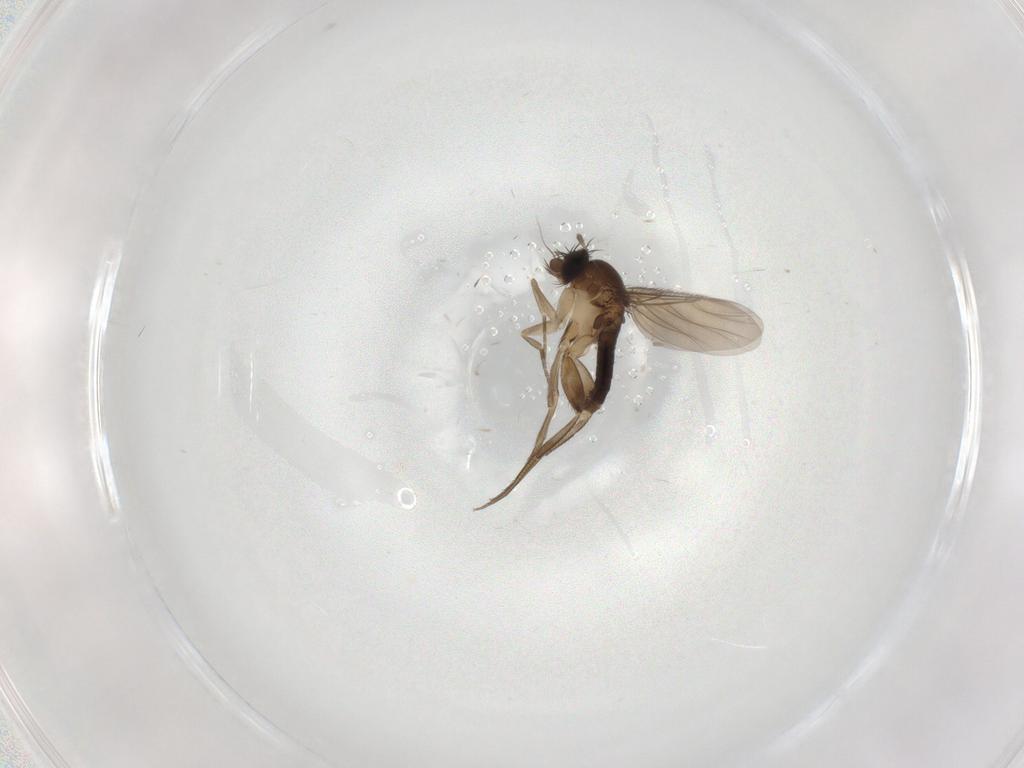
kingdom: Animalia
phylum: Arthropoda
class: Insecta
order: Diptera
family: Phoridae
